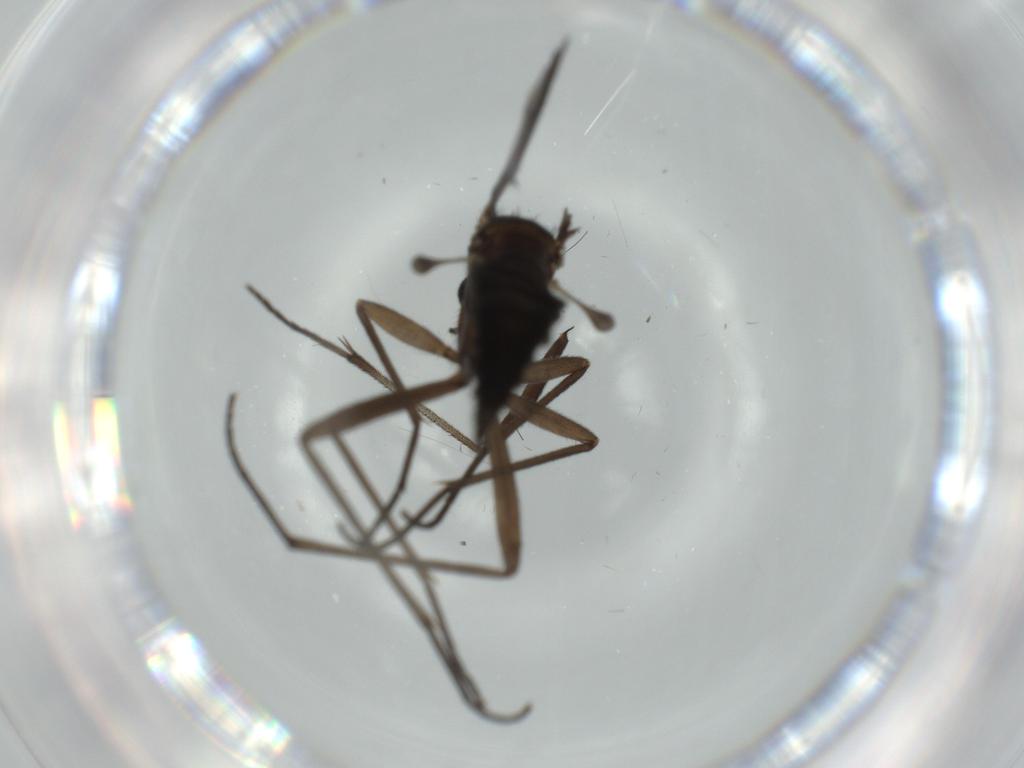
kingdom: Animalia
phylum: Arthropoda
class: Insecta
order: Diptera
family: Sciaridae
